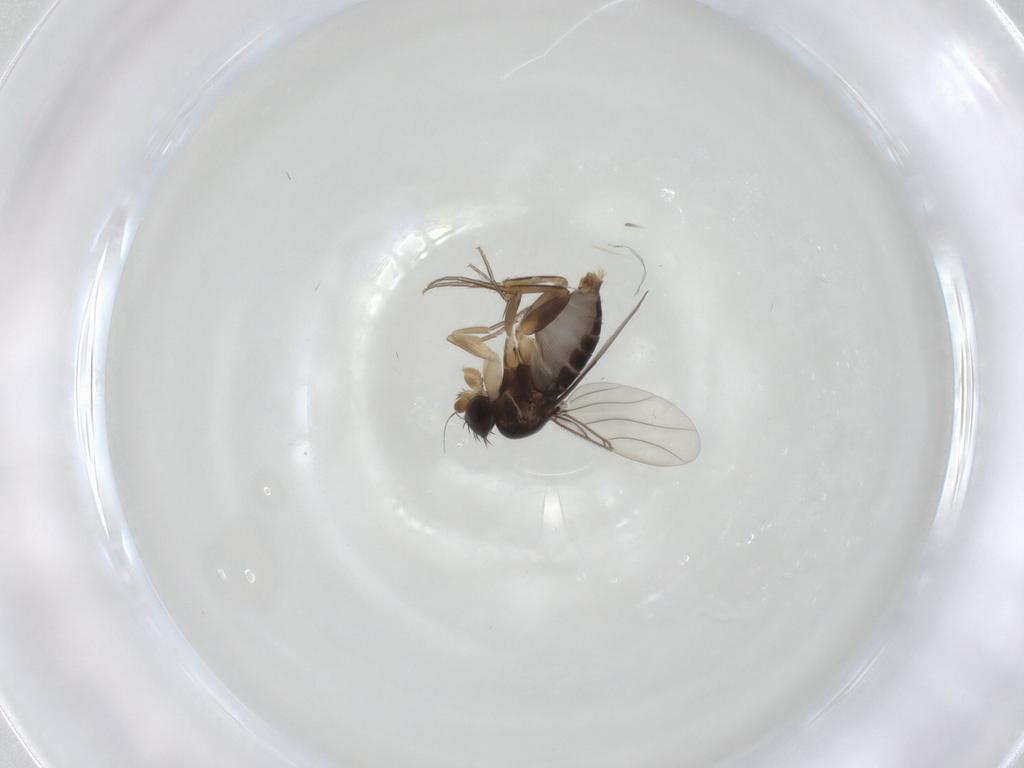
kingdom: Animalia
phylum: Arthropoda
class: Insecta
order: Diptera
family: Phoridae
